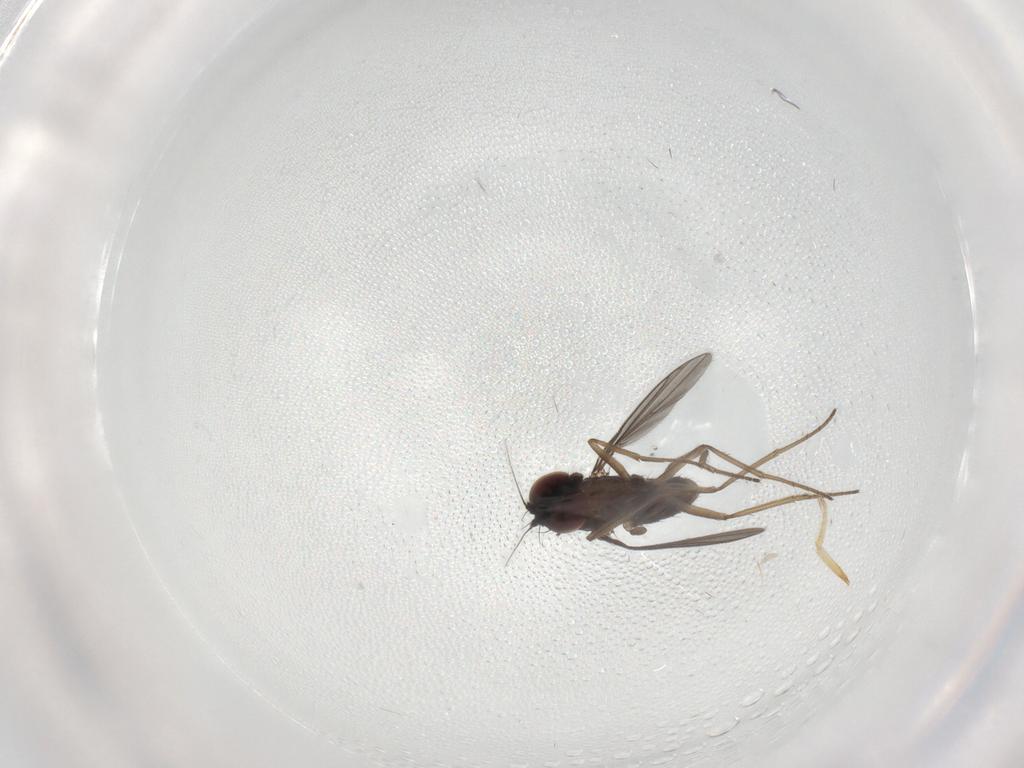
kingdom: Animalia
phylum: Arthropoda
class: Insecta
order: Diptera
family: Dolichopodidae
